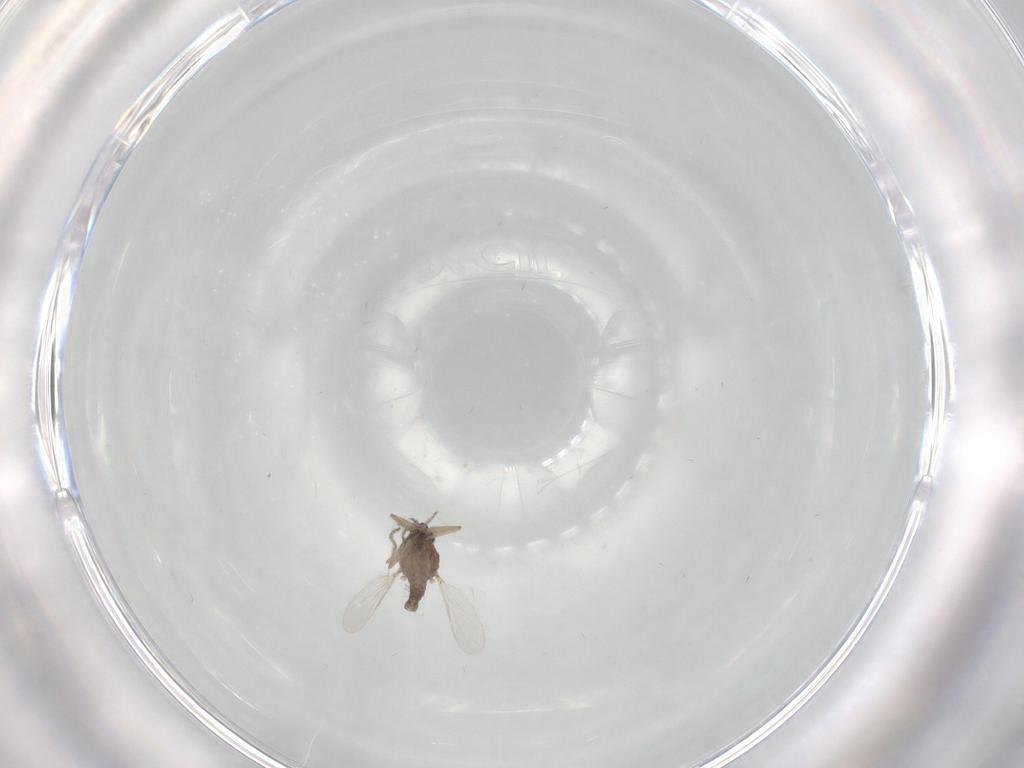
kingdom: Animalia
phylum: Arthropoda
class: Insecta
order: Diptera
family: Ceratopogonidae
